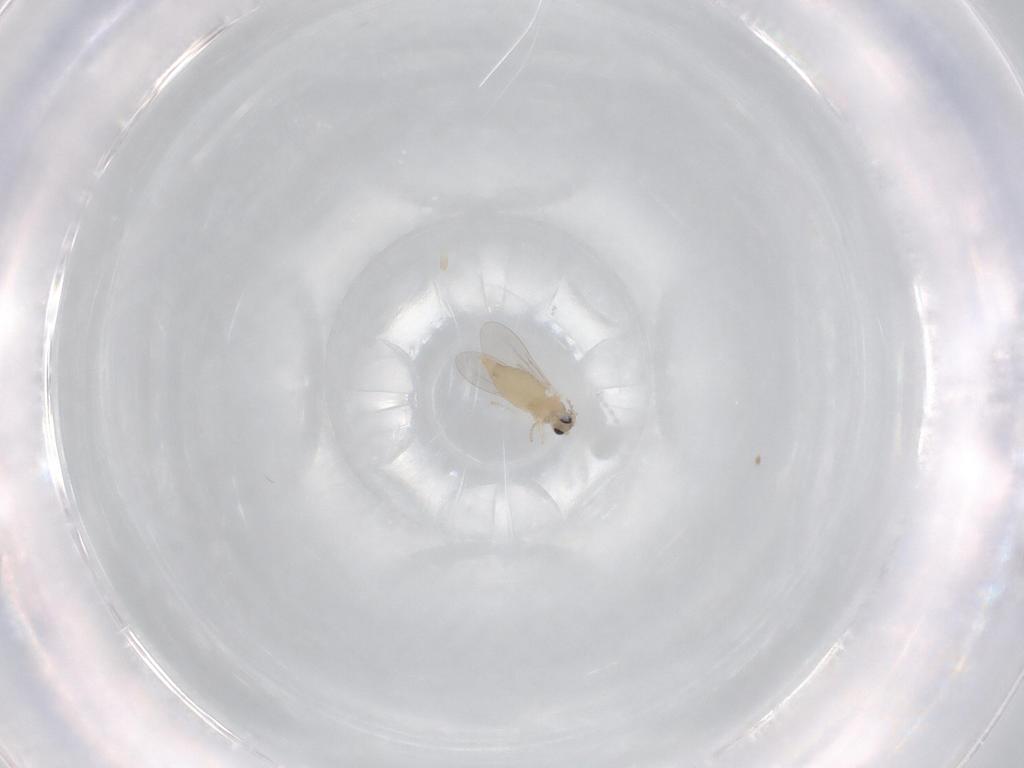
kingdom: Animalia
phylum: Arthropoda
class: Insecta
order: Diptera
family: Cecidomyiidae
